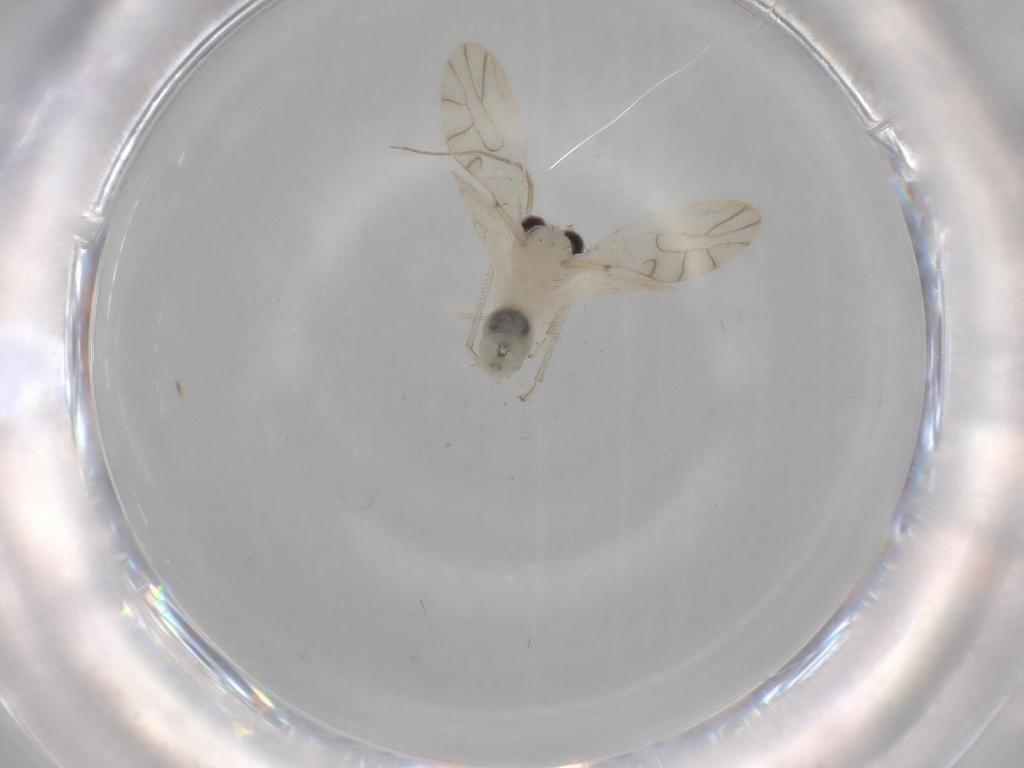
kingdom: Animalia
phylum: Arthropoda
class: Insecta
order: Psocodea
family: Caeciliusidae
